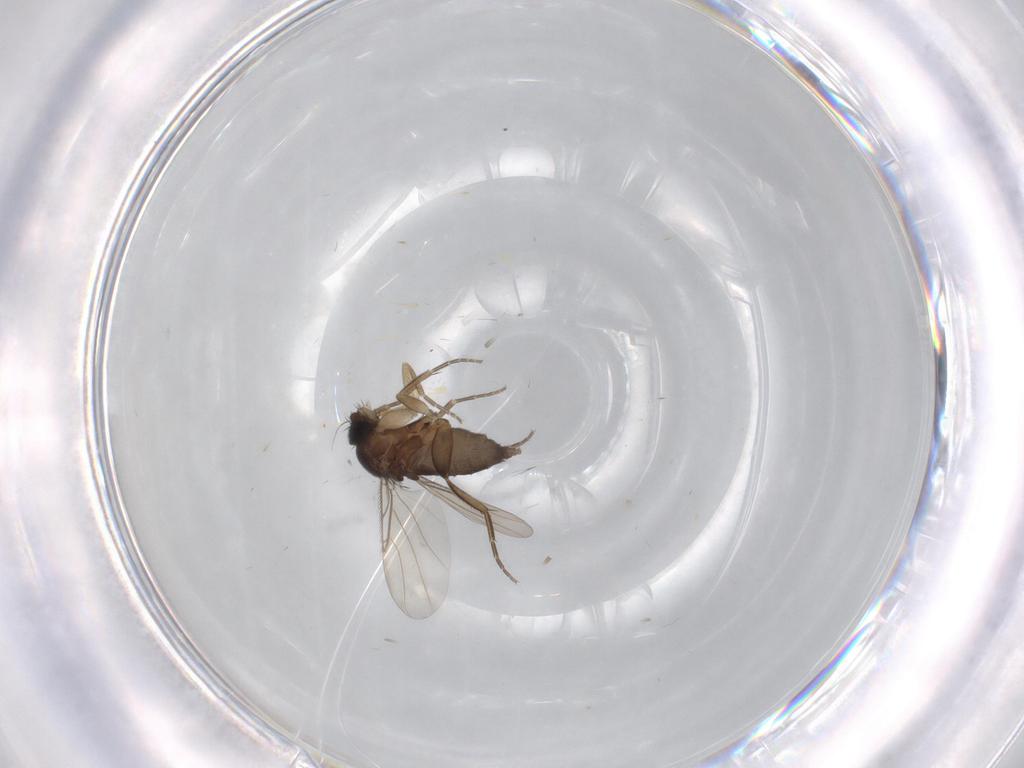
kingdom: Animalia
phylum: Arthropoda
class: Insecta
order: Diptera
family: Phoridae
